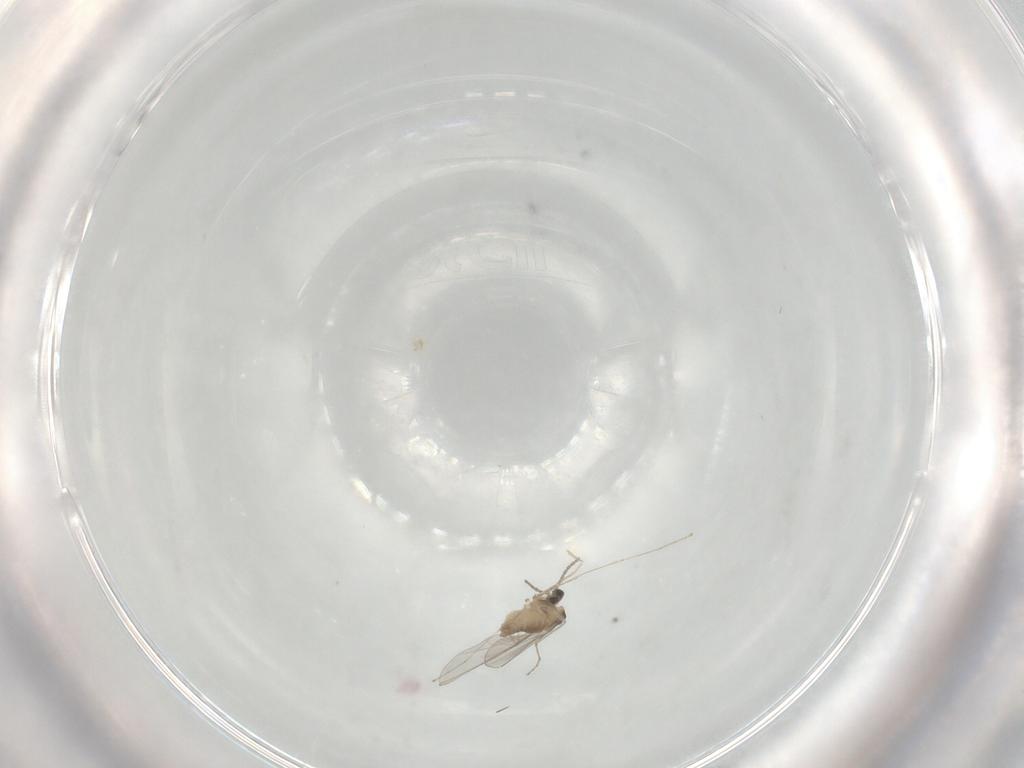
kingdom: Animalia
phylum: Arthropoda
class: Insecta
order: Diptera
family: Cecidomyiidae
